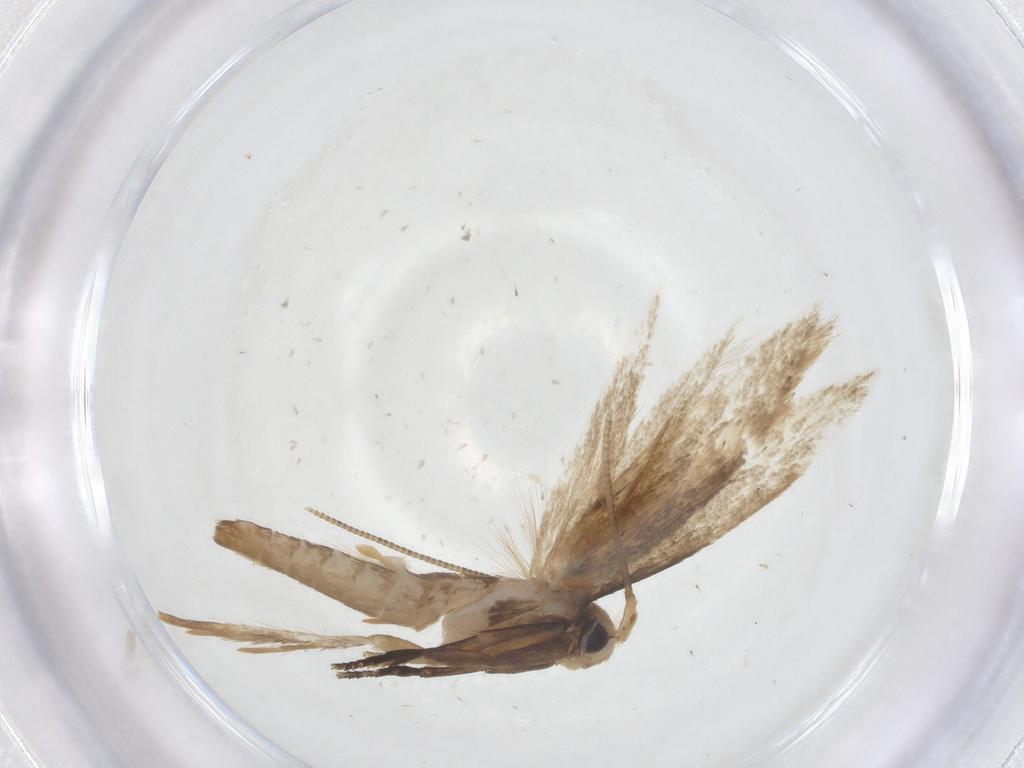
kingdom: Animalia
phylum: Arthropoda
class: Insecta
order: Lepidoptera
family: Tineidae
